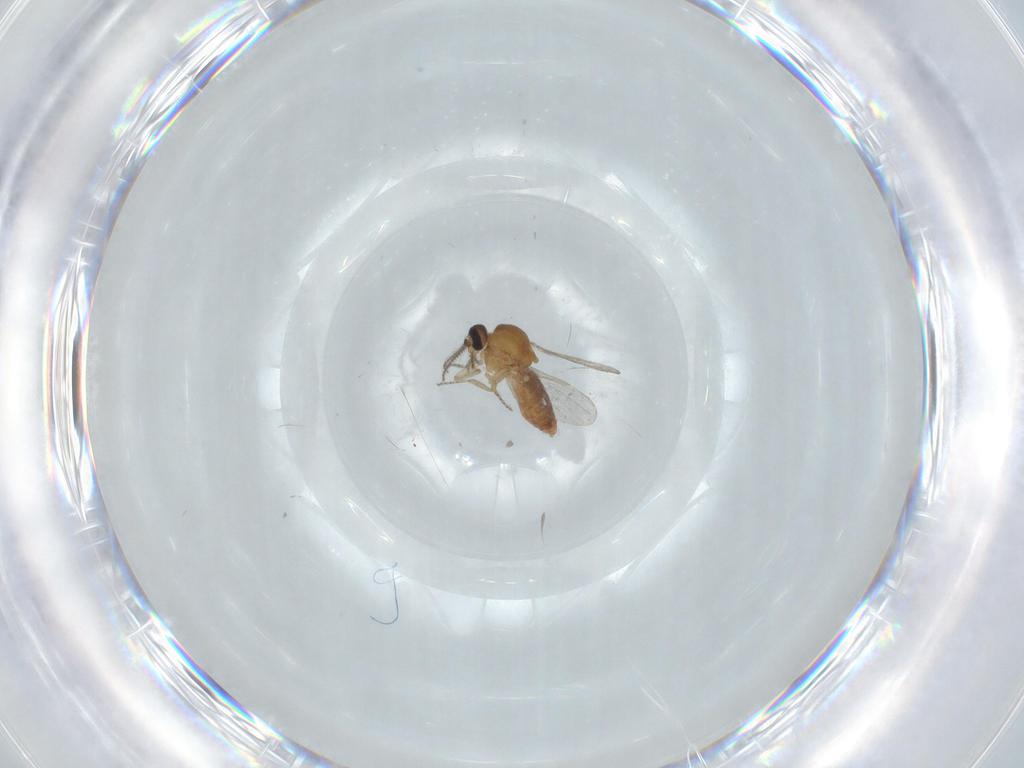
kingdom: Animalia
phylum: Arthropoda
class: Insecta
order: Diptera
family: Ceratopogonidae
